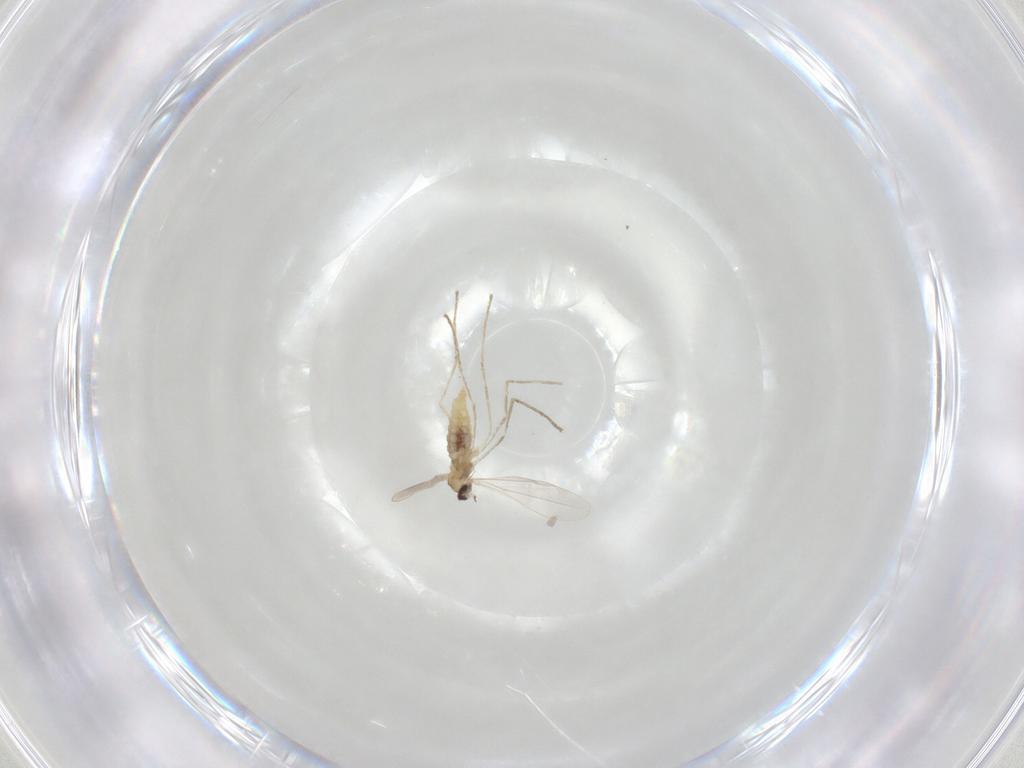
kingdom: Animalia
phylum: Arthropoda
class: Insecta
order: Diptera
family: Cecidomyiidae
